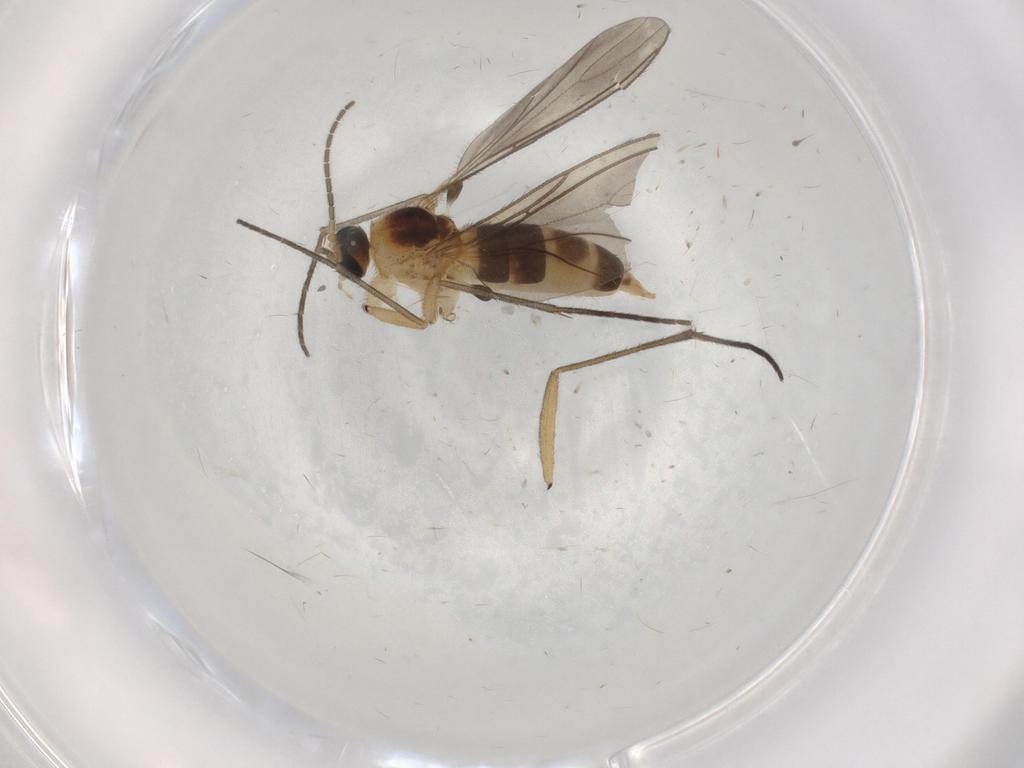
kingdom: Animalia
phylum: Arthropoda
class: Insecta
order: Diptera
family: Sciaridae
